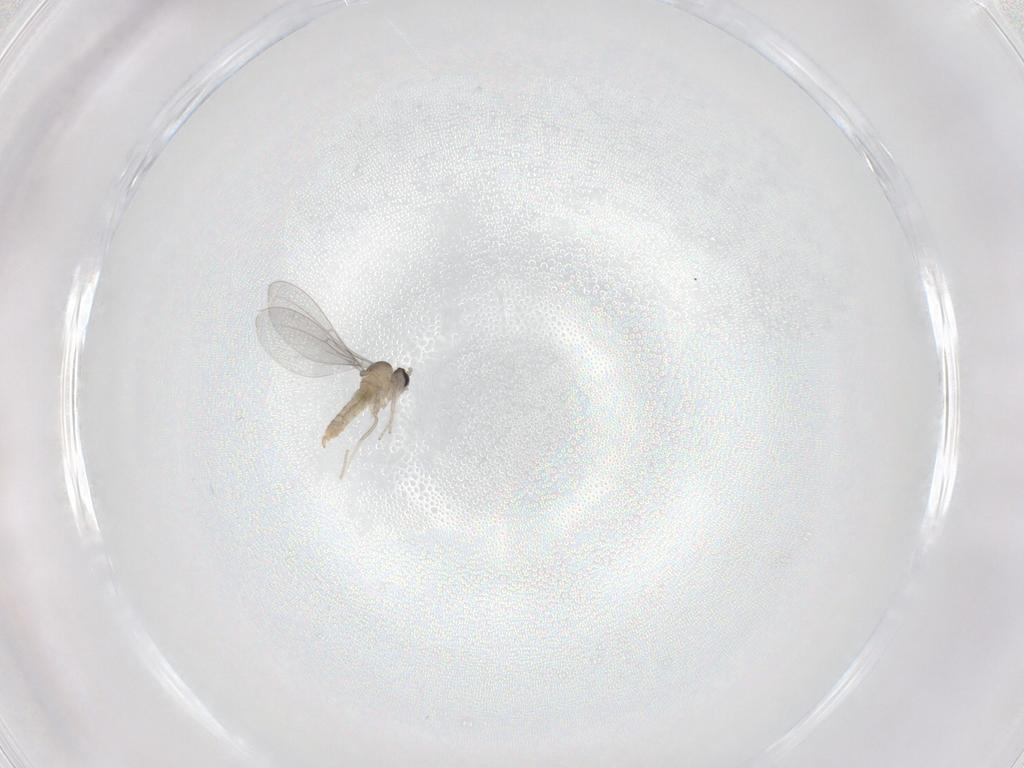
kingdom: Animalia
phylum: Arthropoda
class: Insecta
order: Diptera
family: Cecidomyiidae
